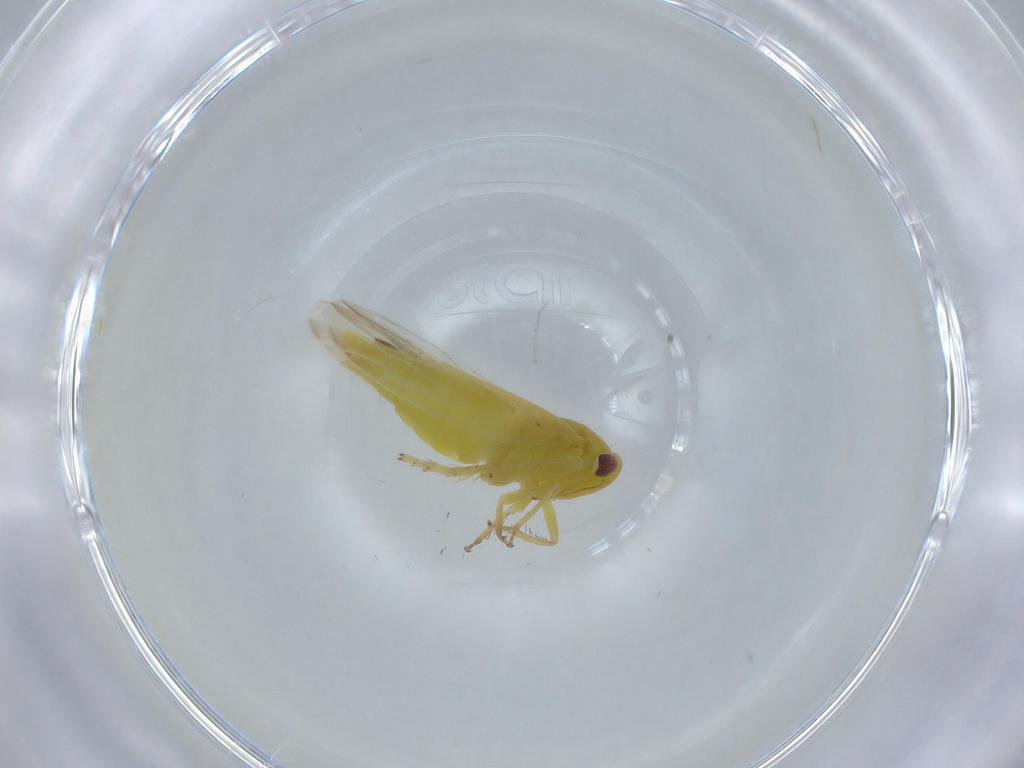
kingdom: Animalia
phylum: Arthropoda
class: Insecta
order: Hemiptera
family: Cicadellidae
